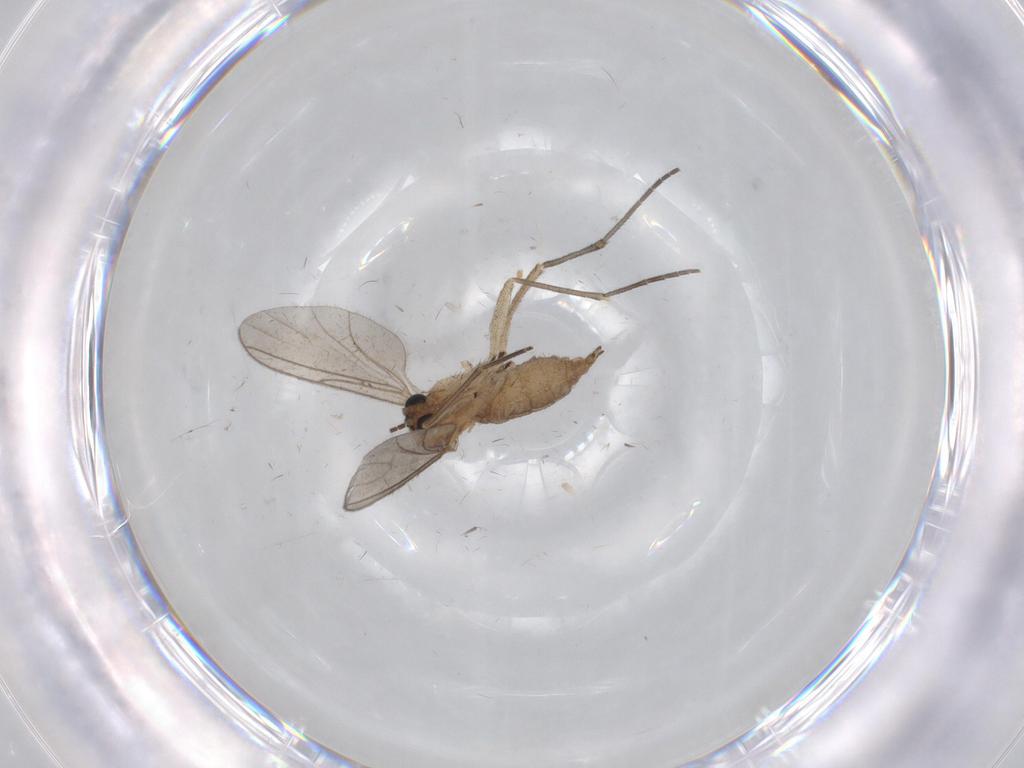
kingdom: Animalia
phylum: Arthropoda
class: Insecta
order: Diptera
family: Sciaridae
